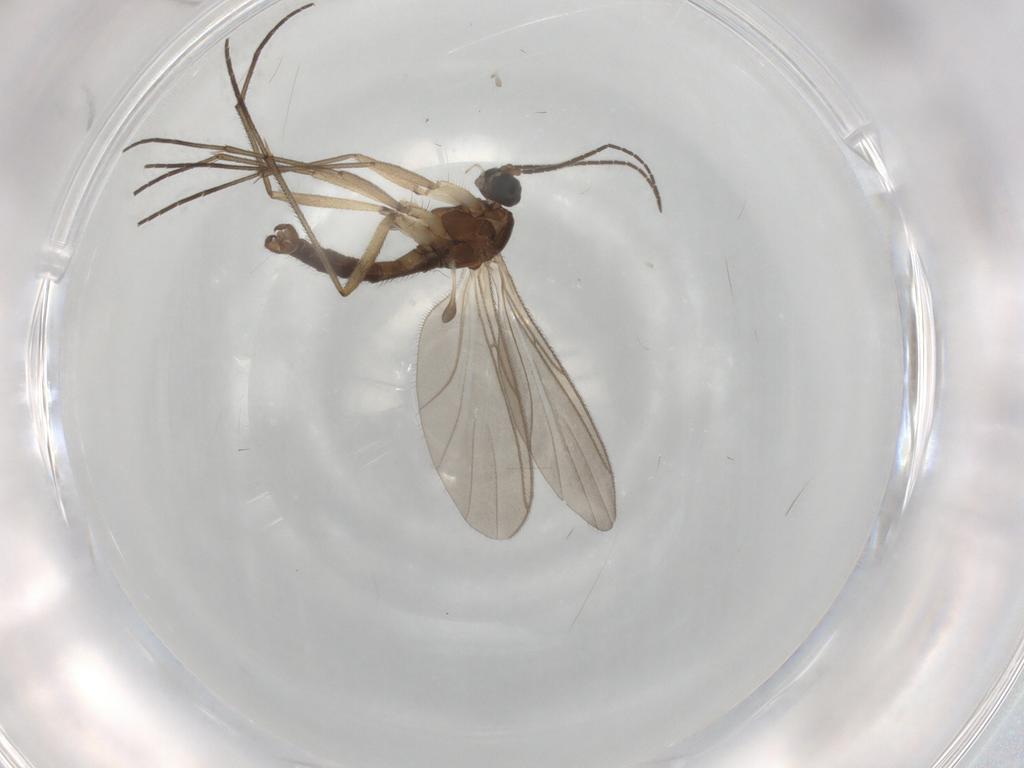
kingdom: Animalia
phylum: Arthropoda
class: Insecta
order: Diptera
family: Sciaridae
